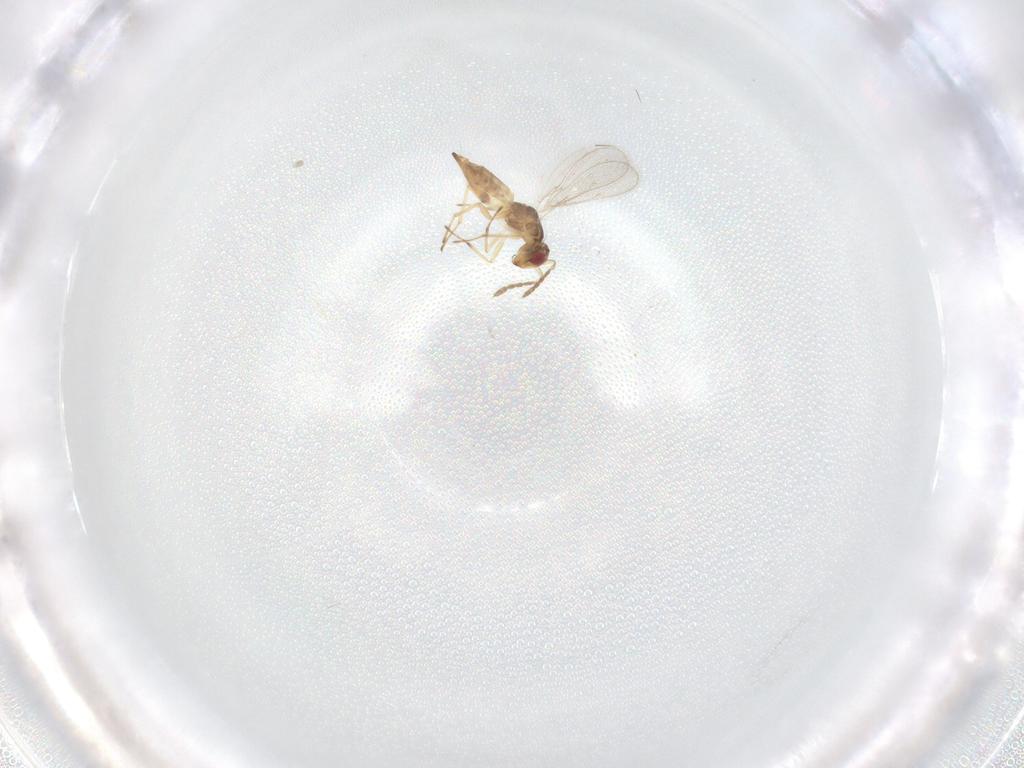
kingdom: Animalia
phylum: Arthropoda
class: Insecta
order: Hymenoptera
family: Eulophidae
